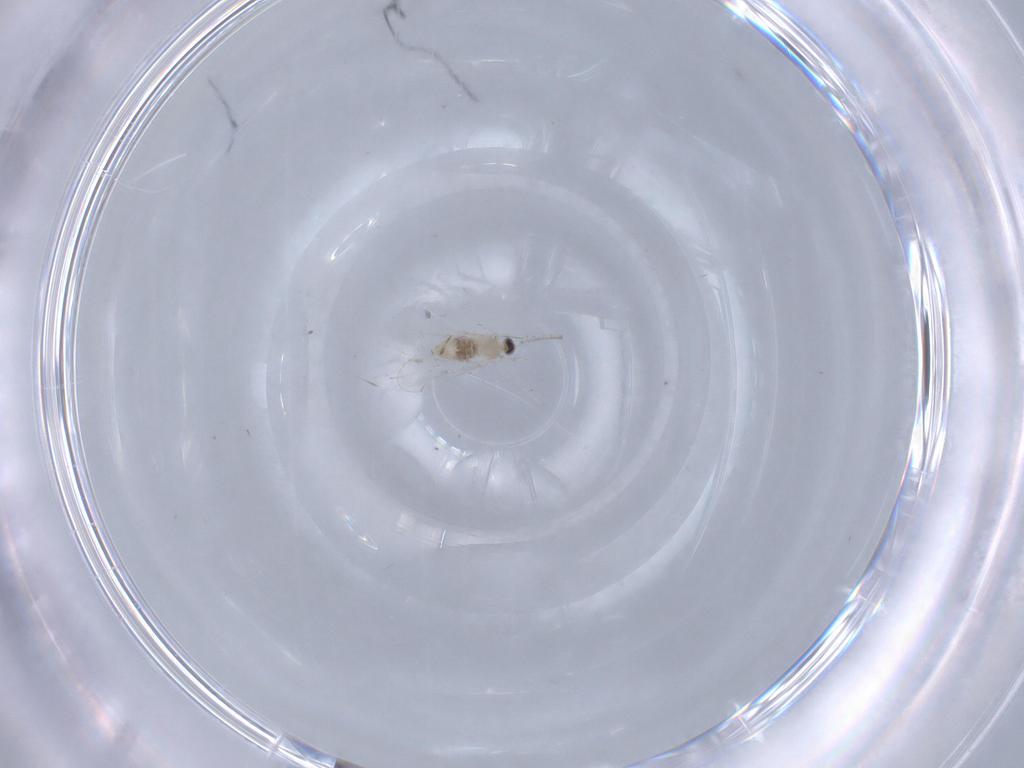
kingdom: Animalia
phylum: Arthropoda
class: Insecta
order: Diptera
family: Cecidomyiidae
